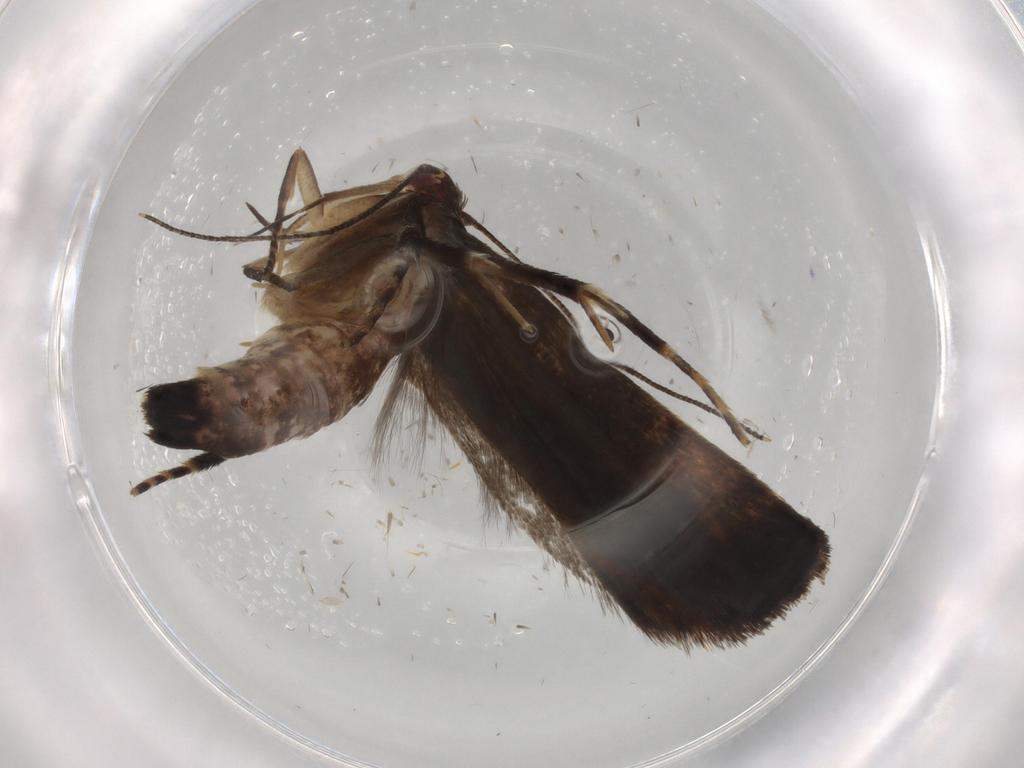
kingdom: Animalia
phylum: Arthropoda
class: Insecta
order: Lepidoptera
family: Gelechiidae
